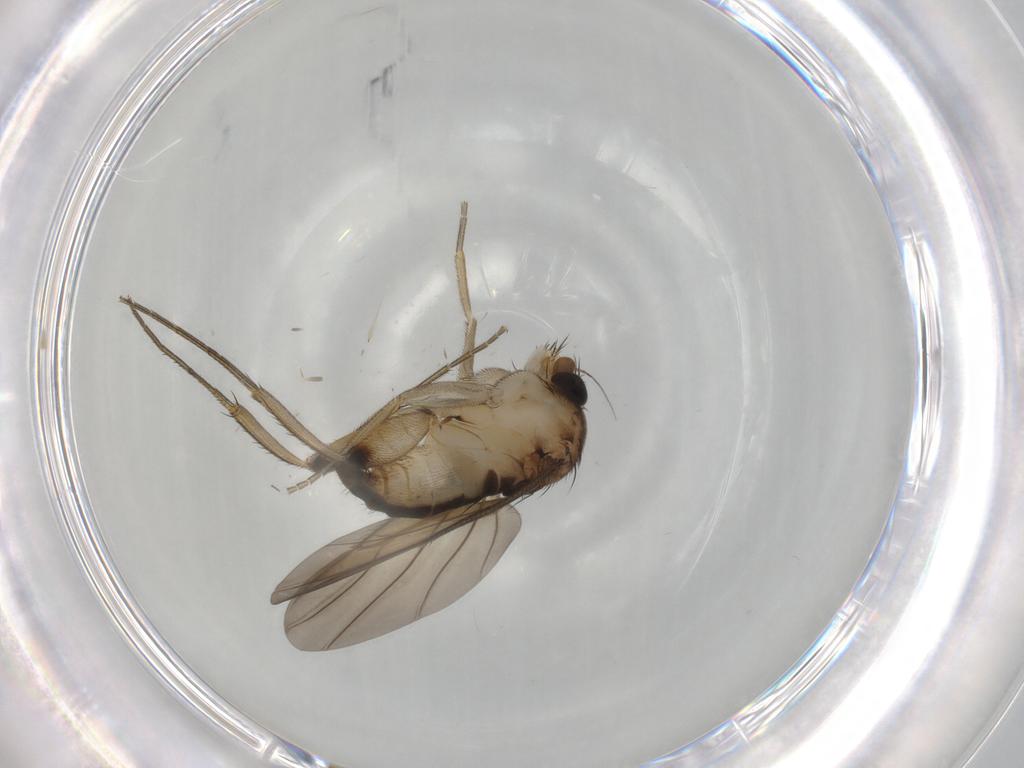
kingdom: Animalia
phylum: Arthropoda
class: Insecta
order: Diptera
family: Phoridae
